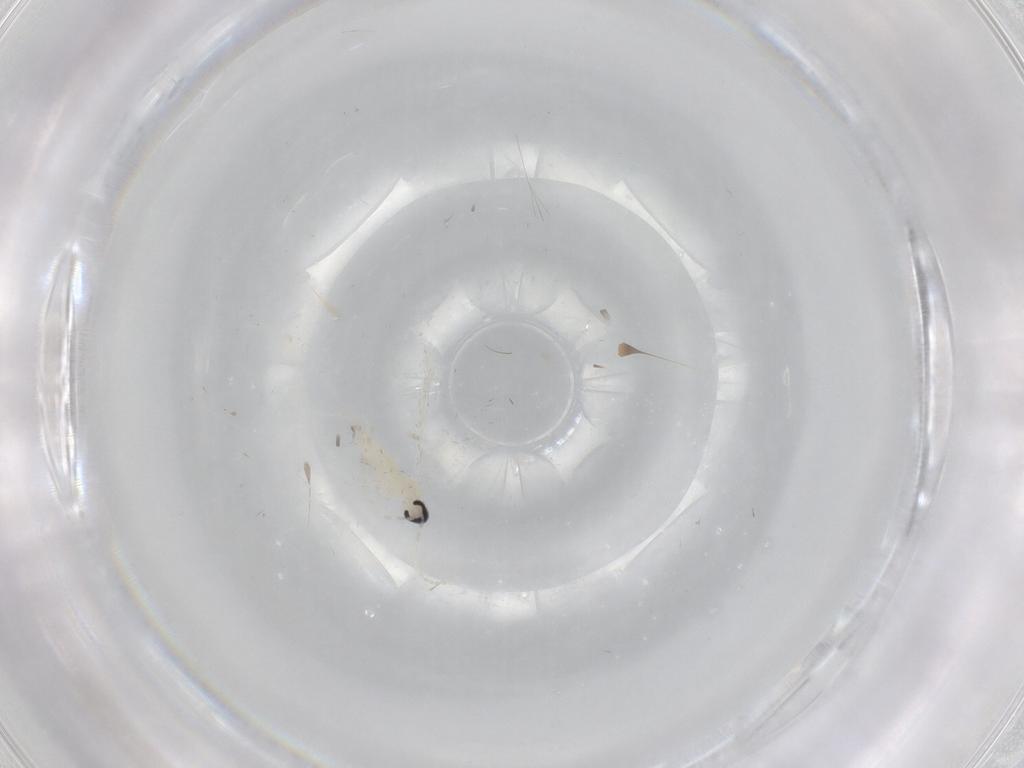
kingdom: Animalia
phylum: Arthropoda
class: Insecta
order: Diptera
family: Cecidomyiidae
